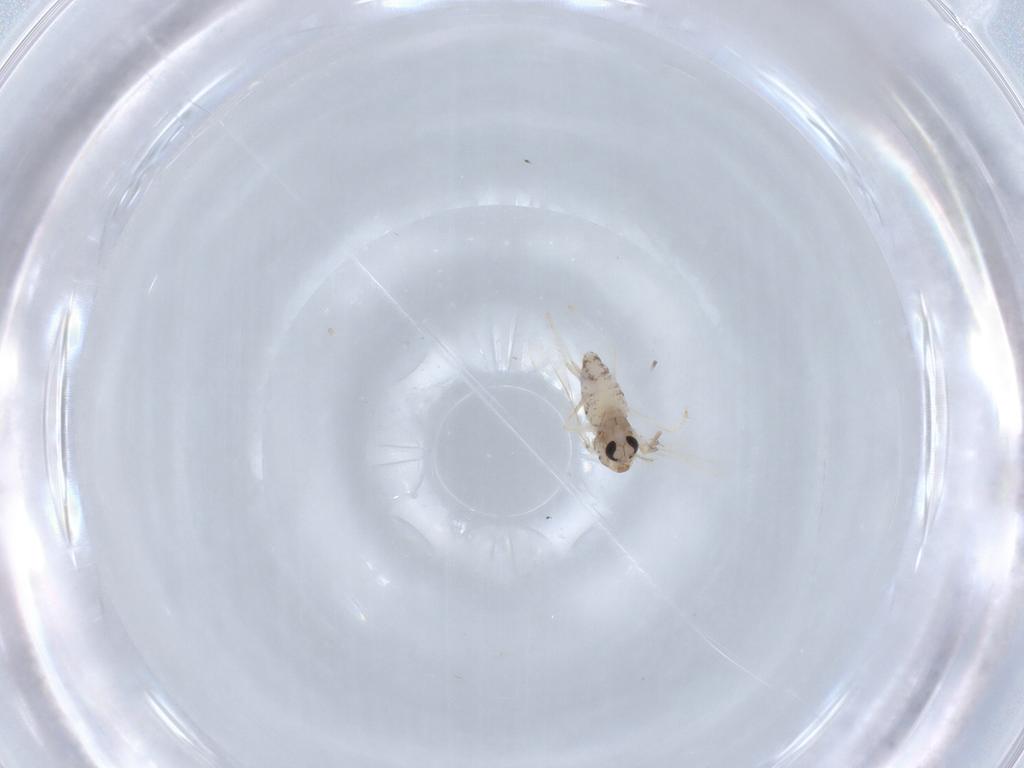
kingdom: Animalia
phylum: Arthropoda
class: Insecta
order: Diptera
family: Chironomidae
